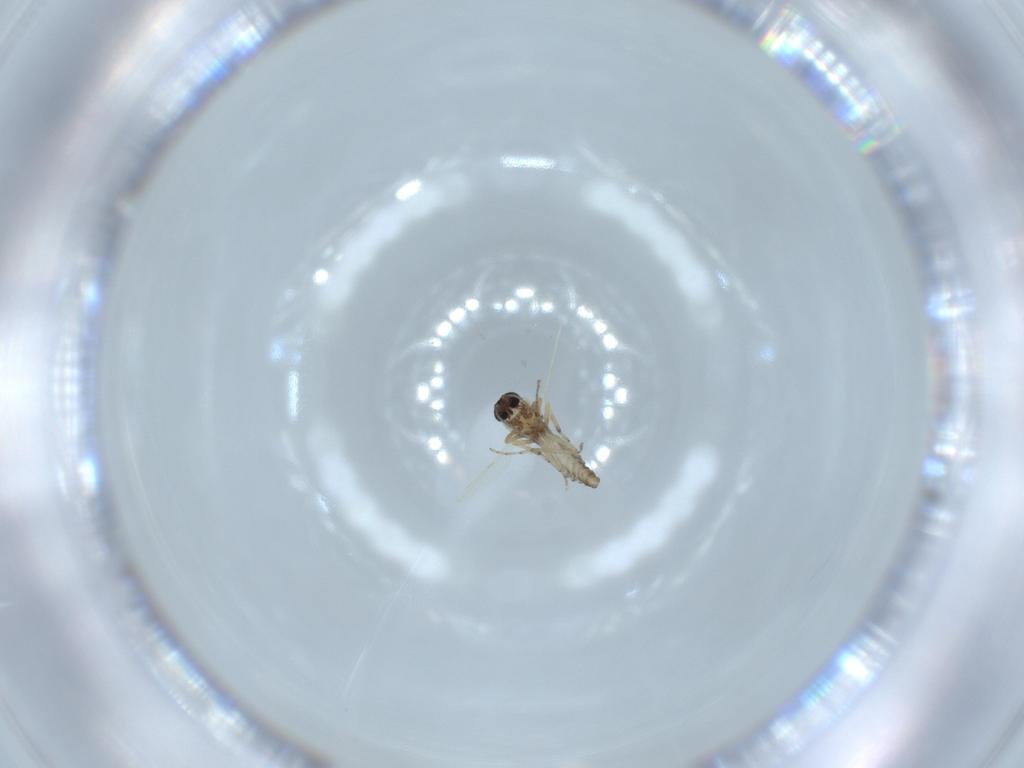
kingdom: Animalia
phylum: Arthropoda
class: Insecta
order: Diptera
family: Ceratopogonidae
